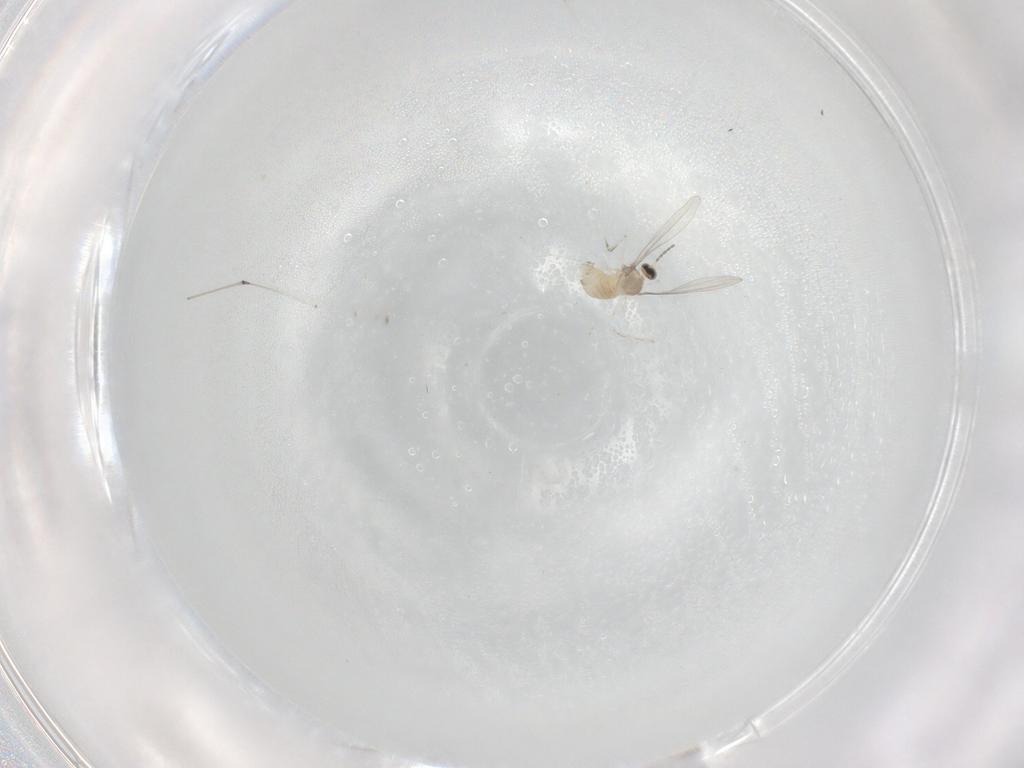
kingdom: Animalia
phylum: Arthropoda
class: Insecta
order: Diptera
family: Ceratopogonidae
